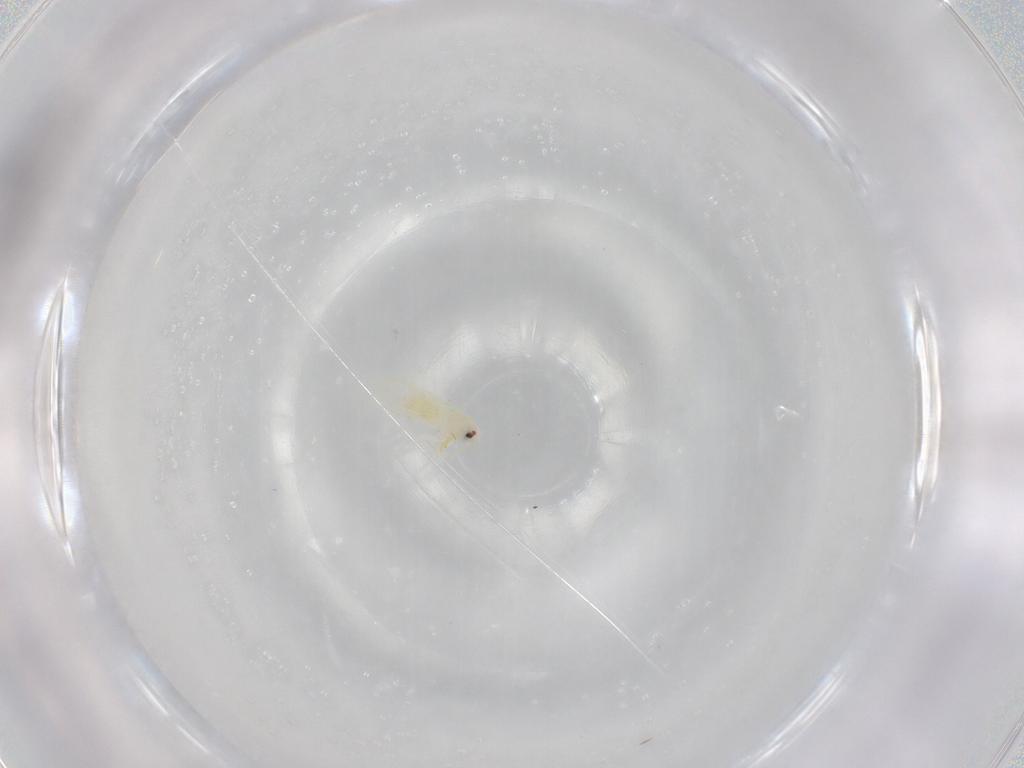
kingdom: Animalia
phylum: Arthropoda
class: Insecta
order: Hemiptera
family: Aleyrodidae
